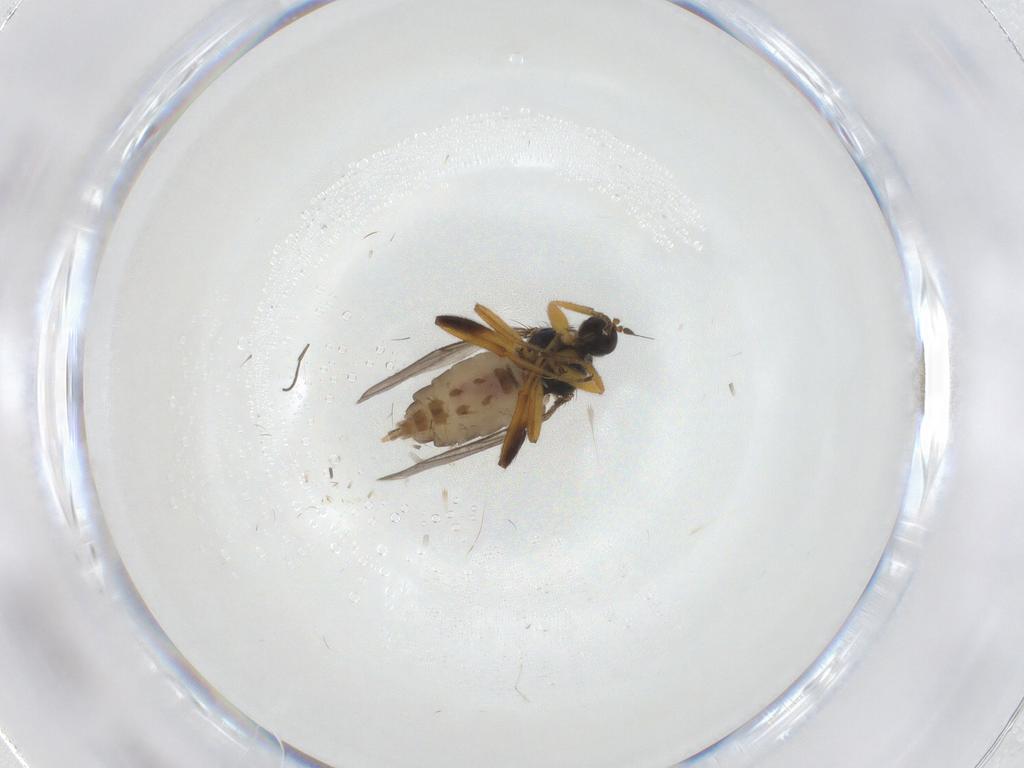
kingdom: Animalia
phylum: Arthropoda
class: Insecta
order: Diptera
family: Hybotidae
